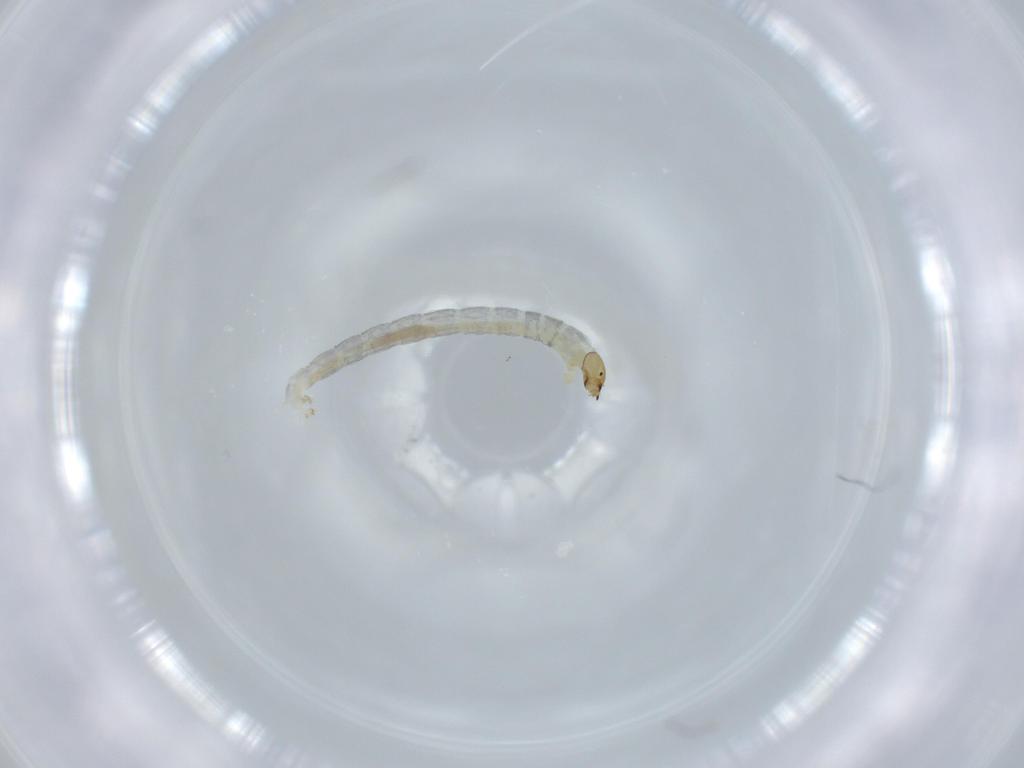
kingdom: Animalia
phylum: Arthropoda
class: Insecta
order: Diptera
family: Chironomidae
